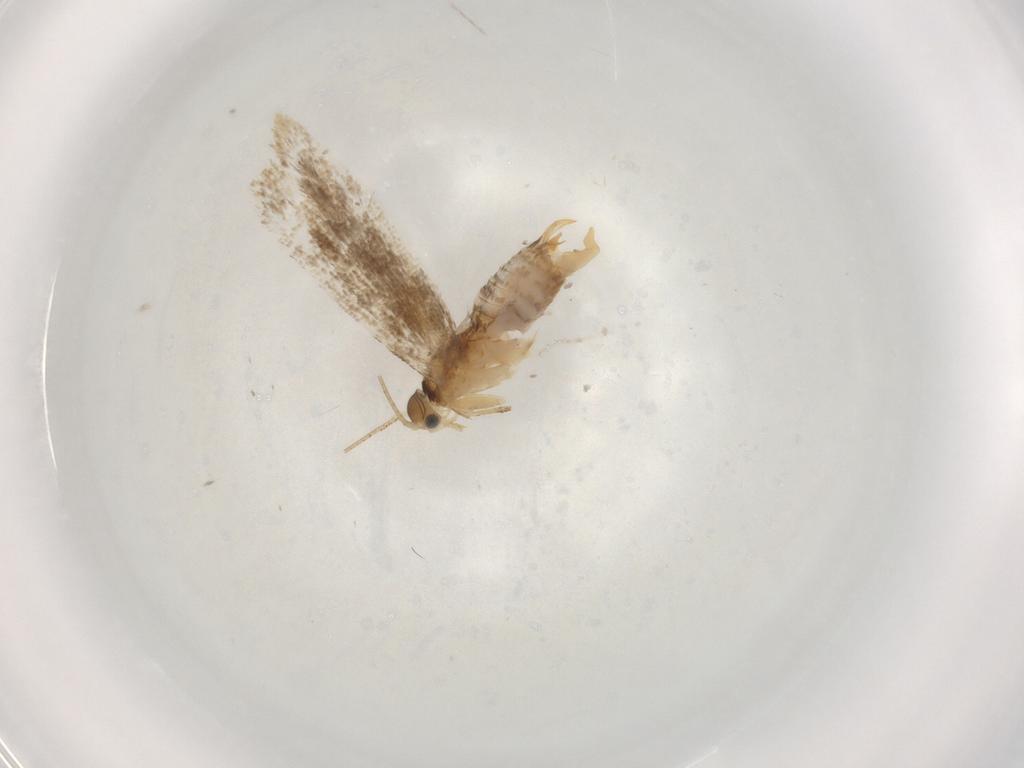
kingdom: Animalia
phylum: Arthropoda
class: Insecta
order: Lepidoptera
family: Dryadaulidae
